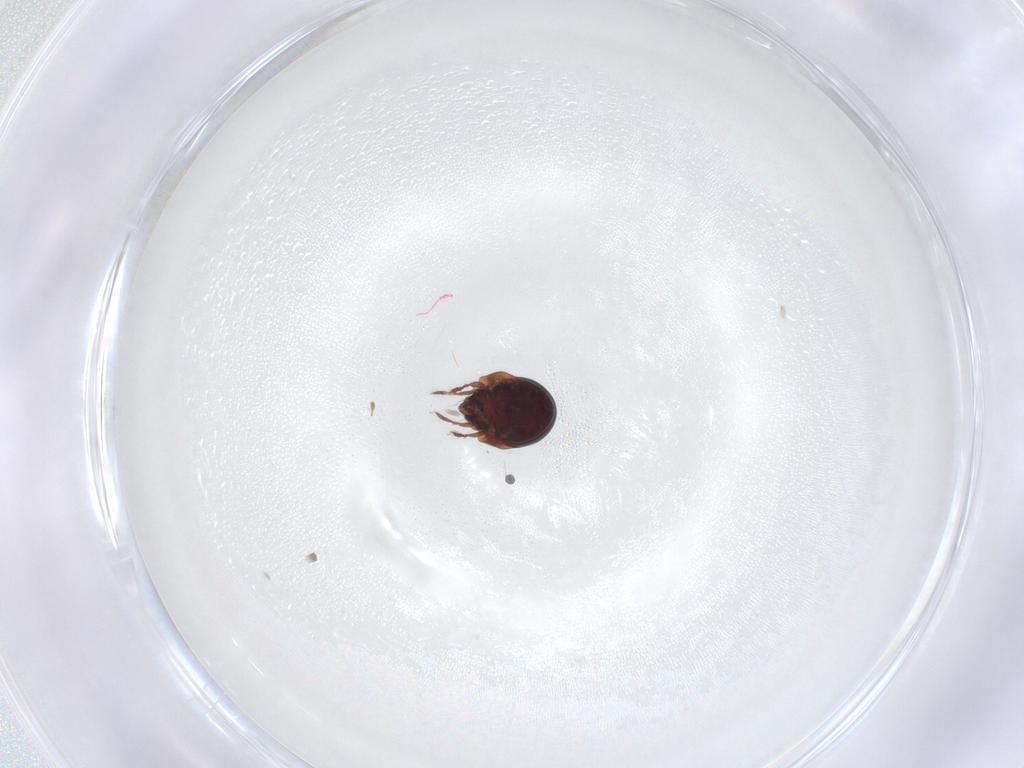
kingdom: Animalia
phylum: Arthropoda
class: Arachnida
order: Sarcoptiformes
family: Humerobatidae
